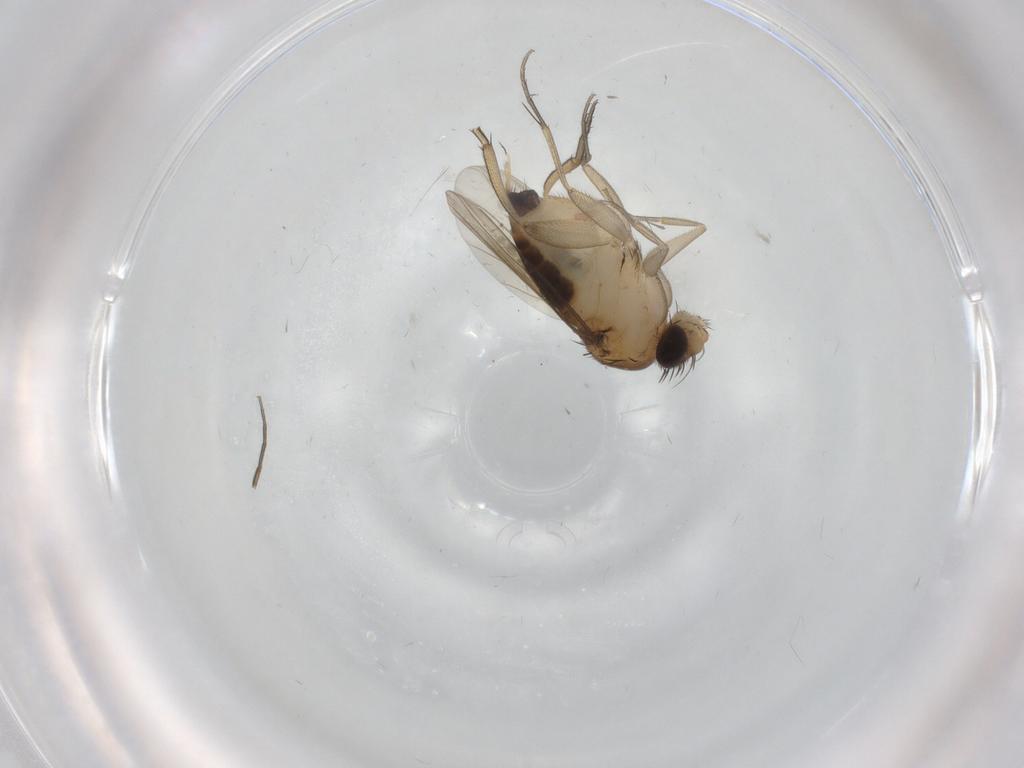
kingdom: Animalia
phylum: Arthropoda
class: Insecta
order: Diptera
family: Phoridae
